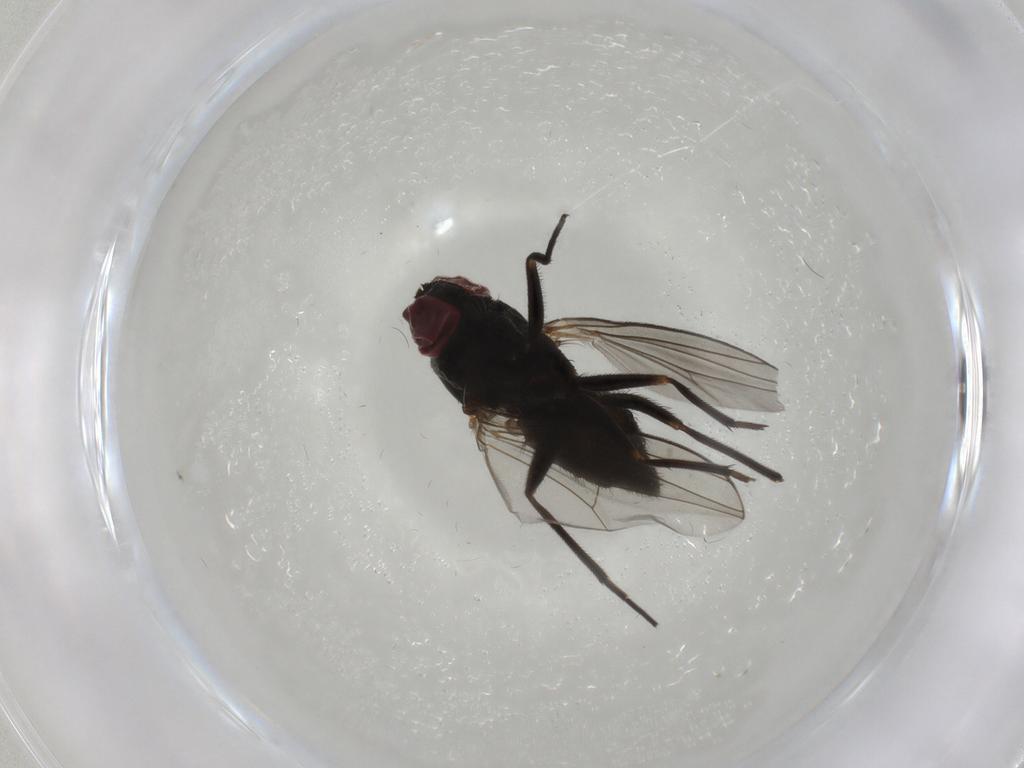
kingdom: Animalia
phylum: Arthropoda
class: Insecta
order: Diptera
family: Dolichopodidae
